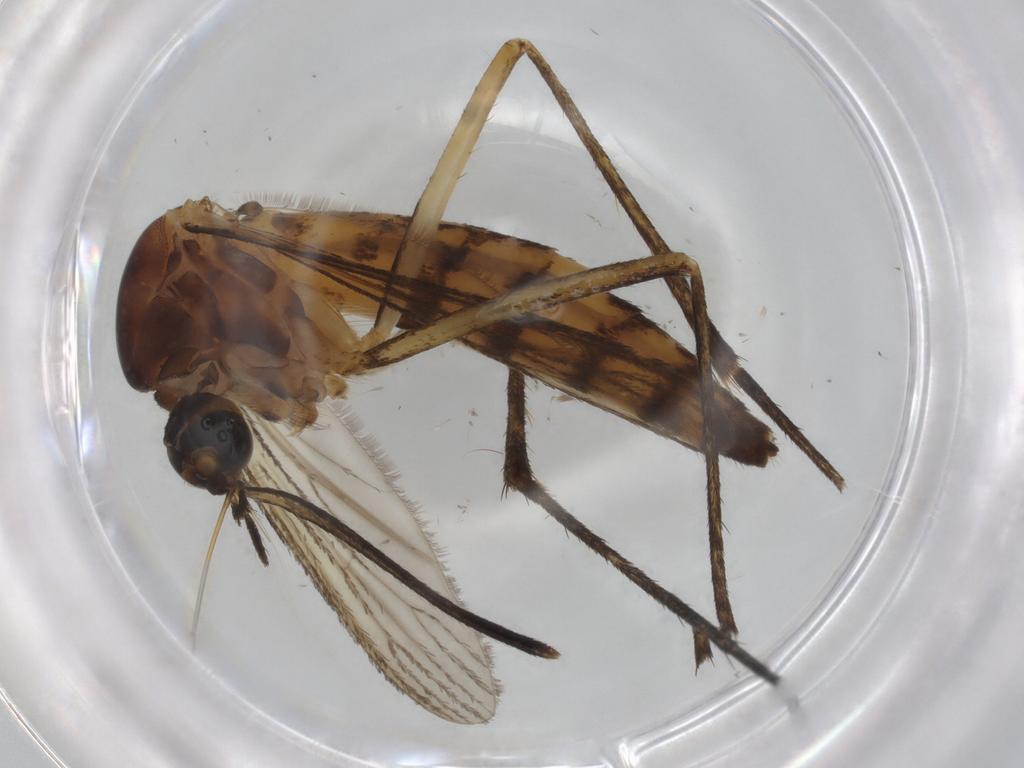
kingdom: Animalia
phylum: Arthropoda
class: Insecta
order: Diptera
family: Culicidae
